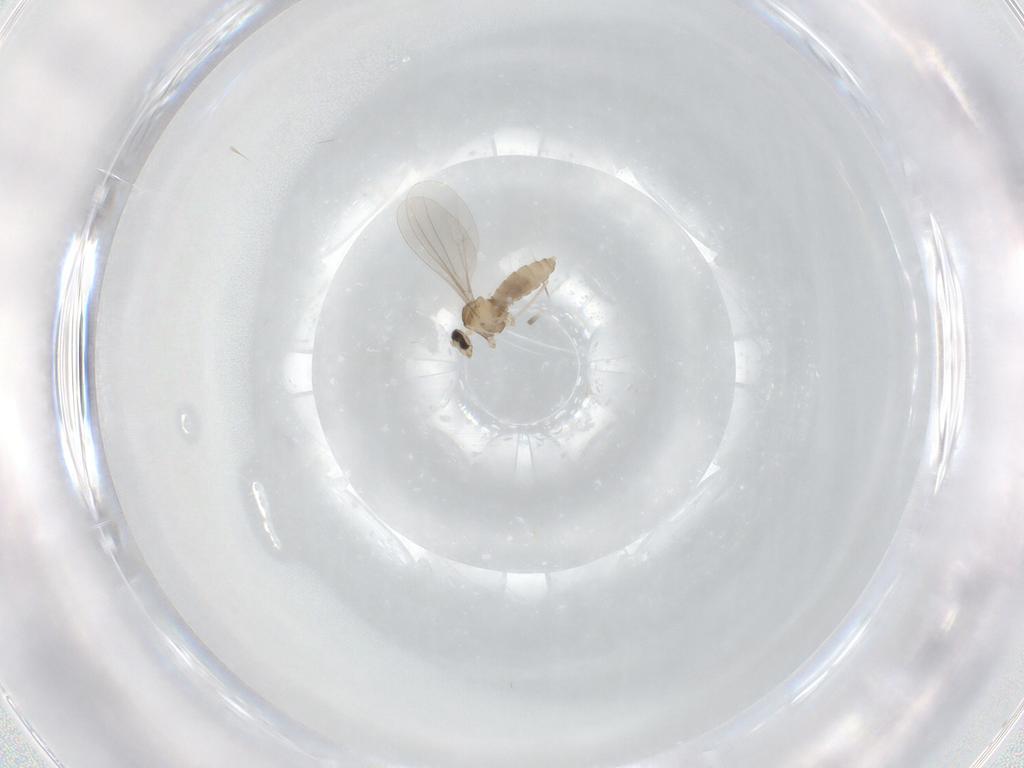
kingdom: Animalia
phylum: Arthropoda
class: Insecta
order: Diptera
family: Cecidomyiidae
